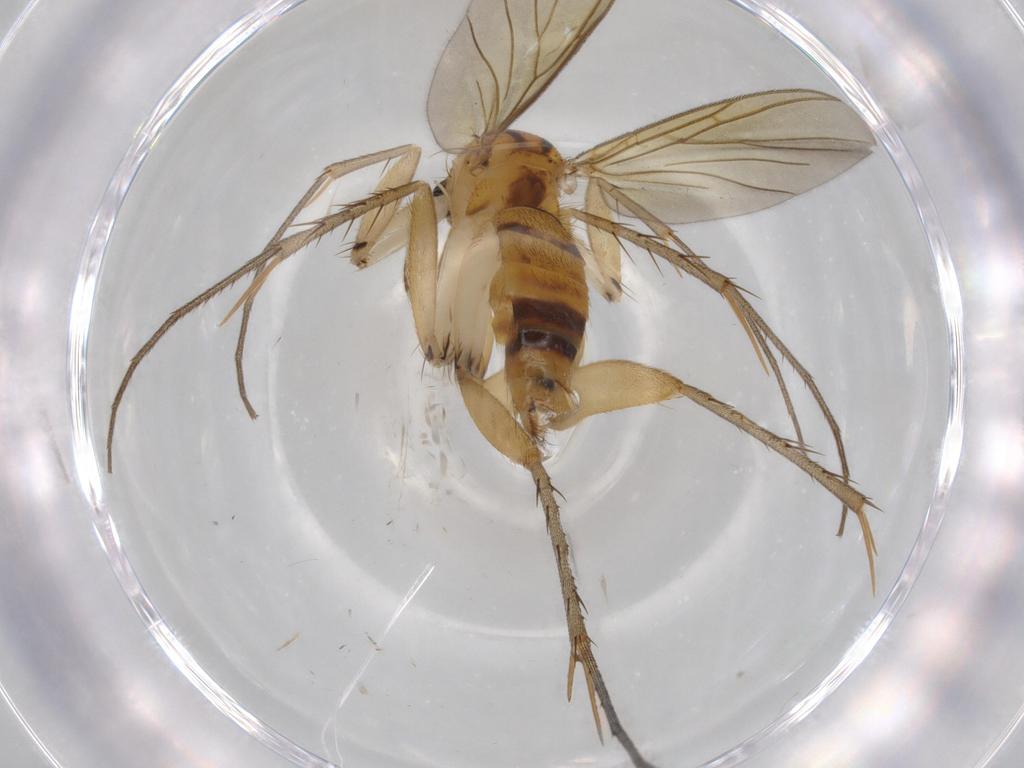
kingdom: Animalia
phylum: Arthropoda
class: Insecta
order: Diptera
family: Mycetophilidae
